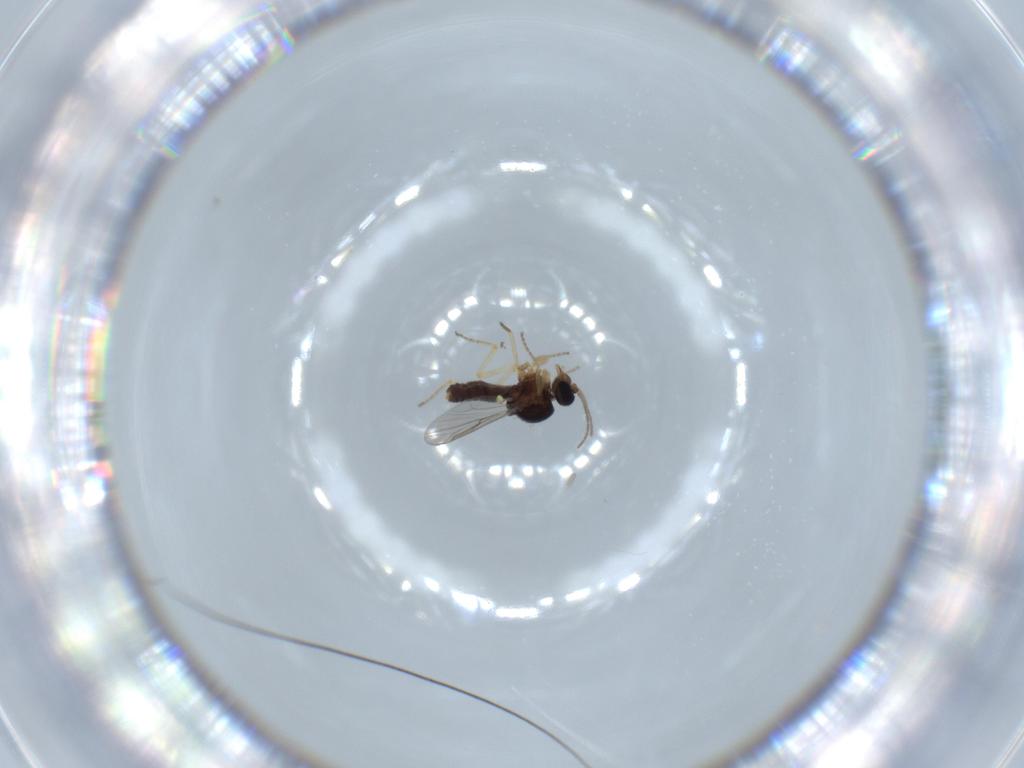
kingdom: Animalia
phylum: Arthropoda
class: Insecta
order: Diptera
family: Ceratopogonidae
